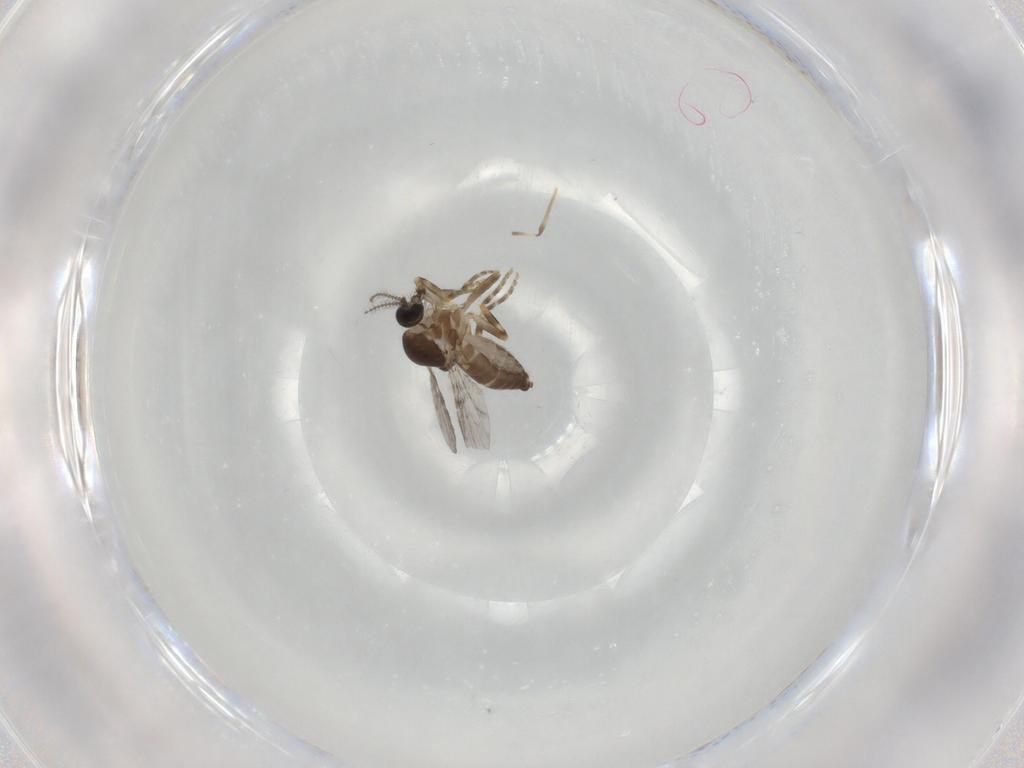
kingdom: Animalia
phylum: Arthropoda
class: Insecta
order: Diptera
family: Ceratopogonidae
